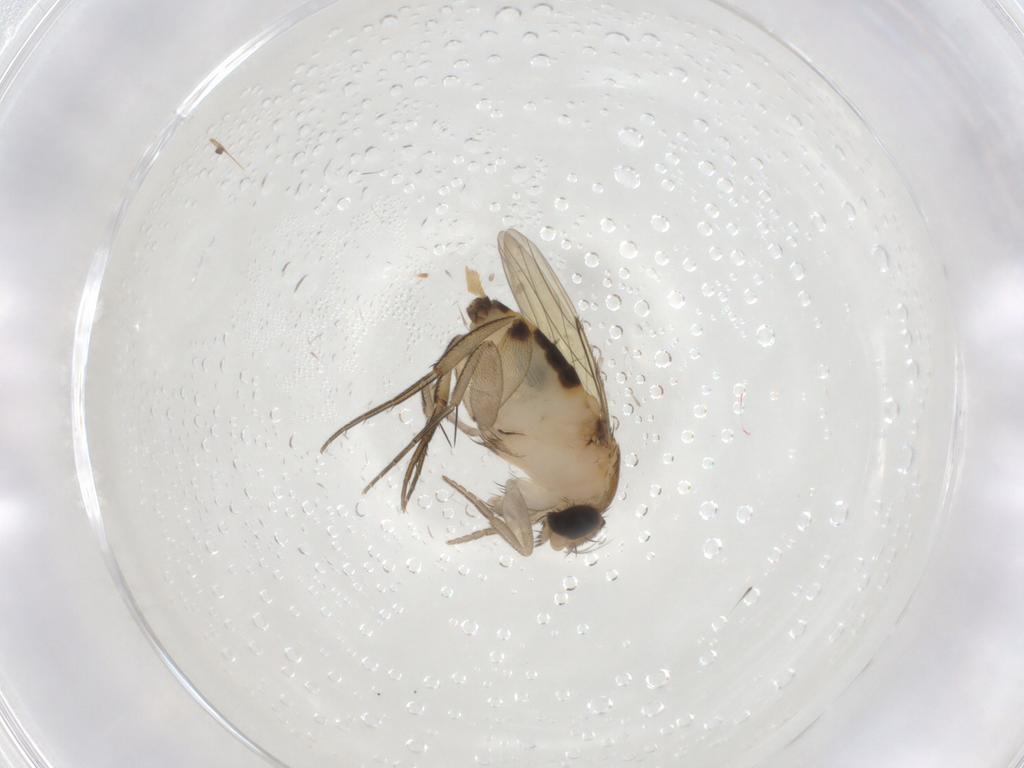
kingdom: Animalia
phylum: Arthropoda
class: Insecta
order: Diptera
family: Phoridae
